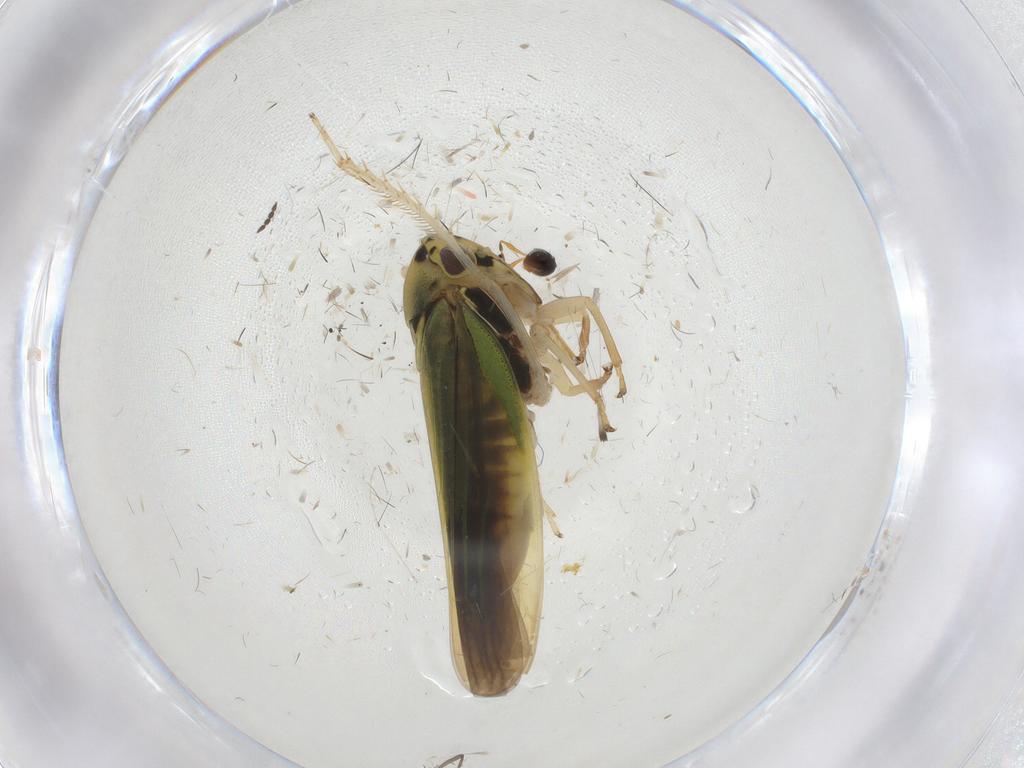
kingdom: Animalia
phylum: Arthropoda
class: Insecta
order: Hemiptera
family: Cicadellidae
